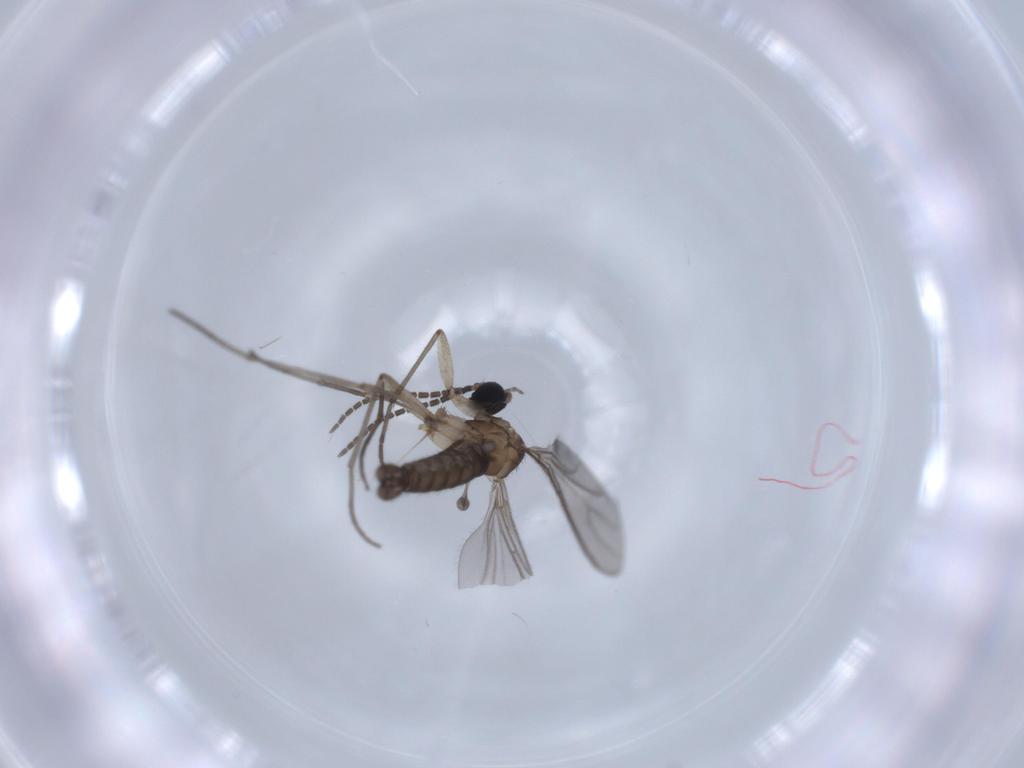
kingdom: Animalia
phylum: Arthropoda
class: Insecta
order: Diptera
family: Sciaridae
